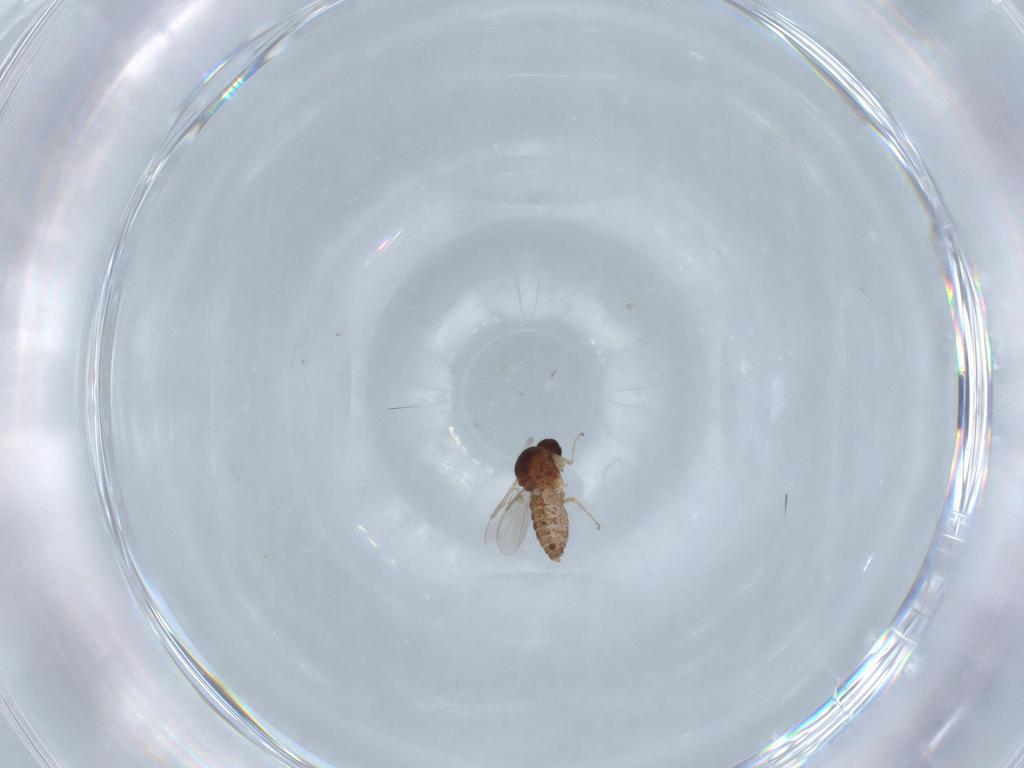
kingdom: Animalia
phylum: Arthropoda
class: Insecta
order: Diptera
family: Ceratopogonidae
